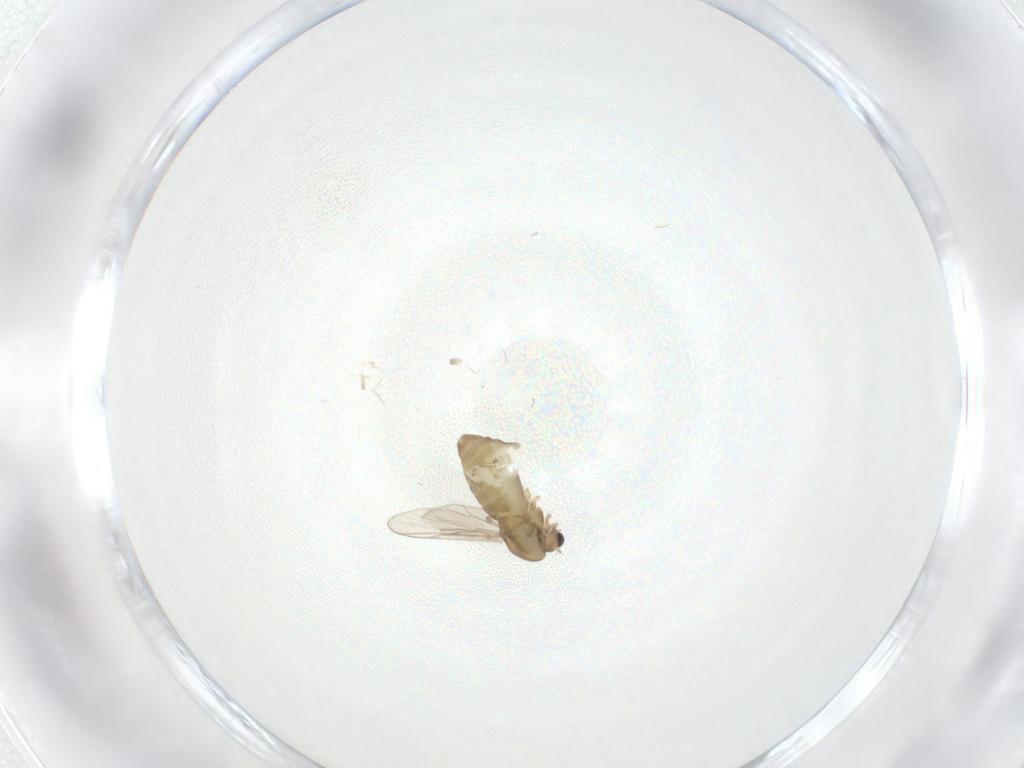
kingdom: Animalia
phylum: Arthropoda
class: Insecta
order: Diptera
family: Chironomidae
